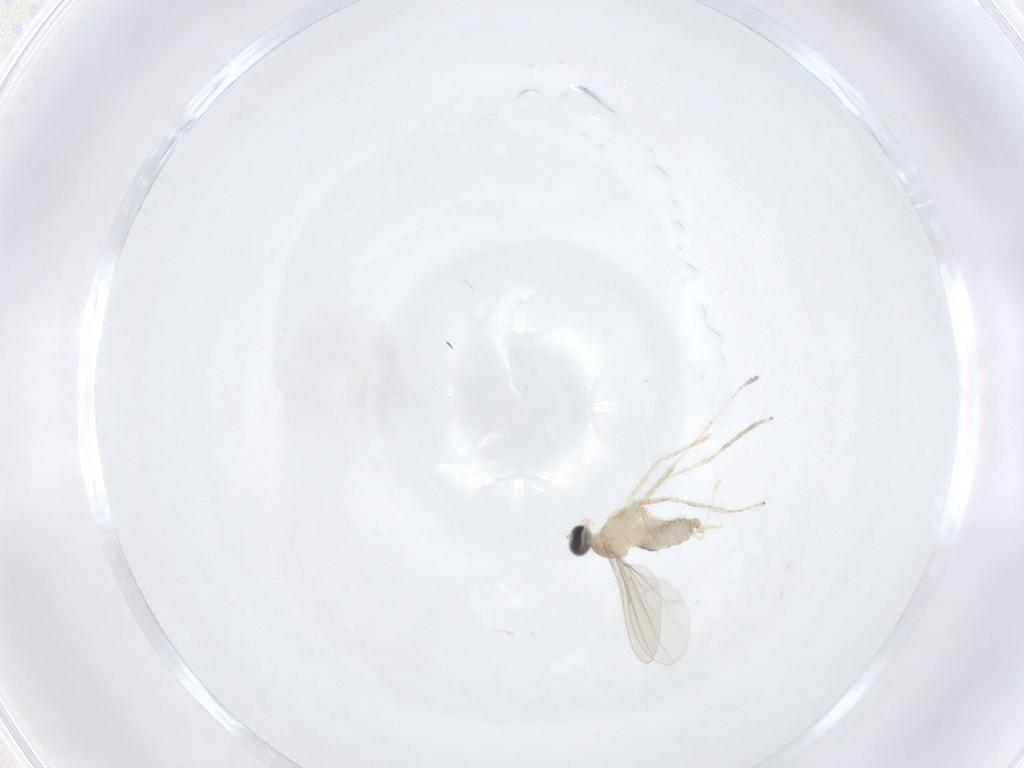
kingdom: Animalia
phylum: Arthropoda
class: Insecta
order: Diptera
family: Cecidomyiidae
